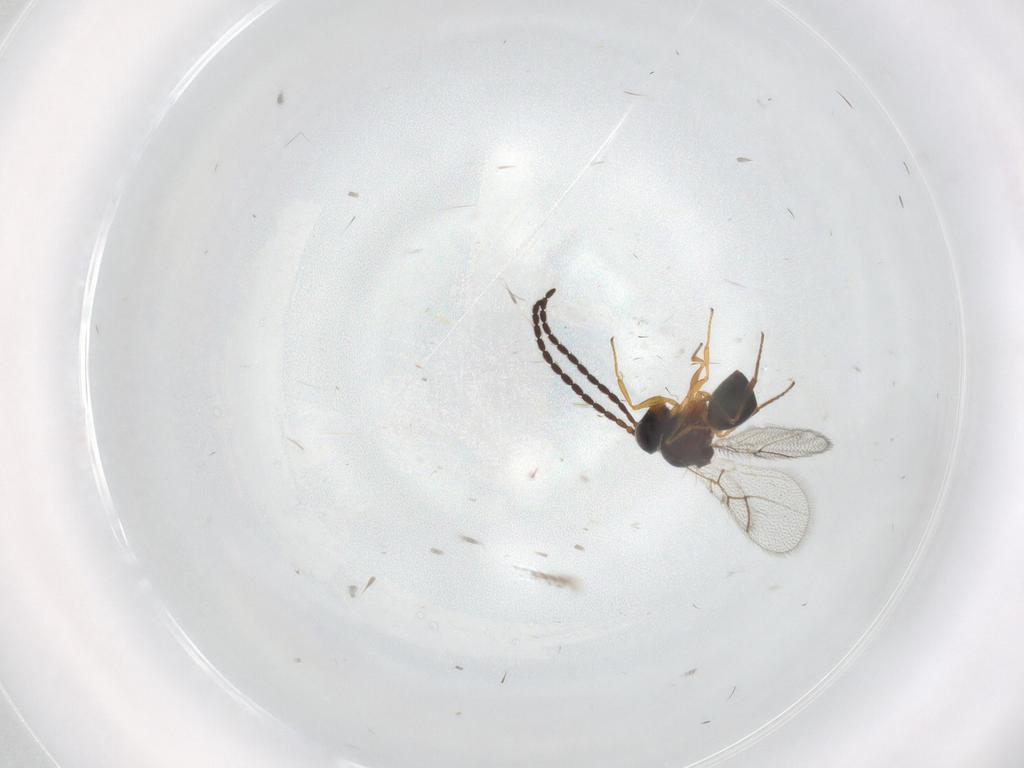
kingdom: Animalia
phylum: Arthropoda
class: Insecta
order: Hymenoptera
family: Figitidae
